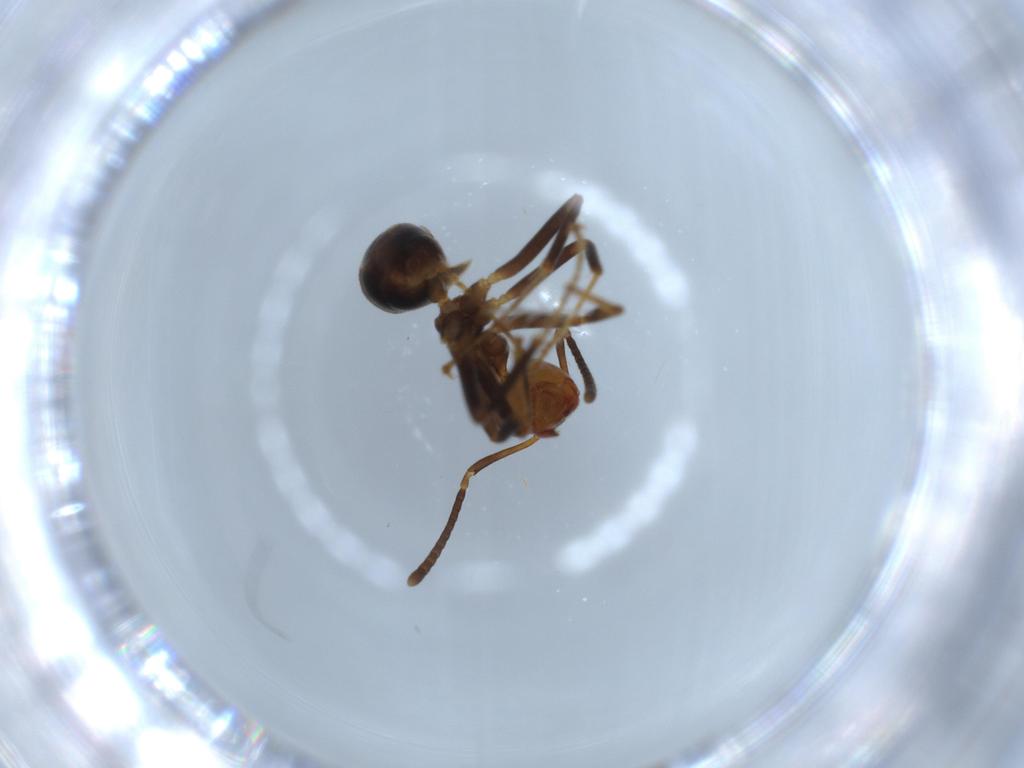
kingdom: Animalia
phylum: Arthropoda
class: Insecta
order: Hymenoptera
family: Formicidae
